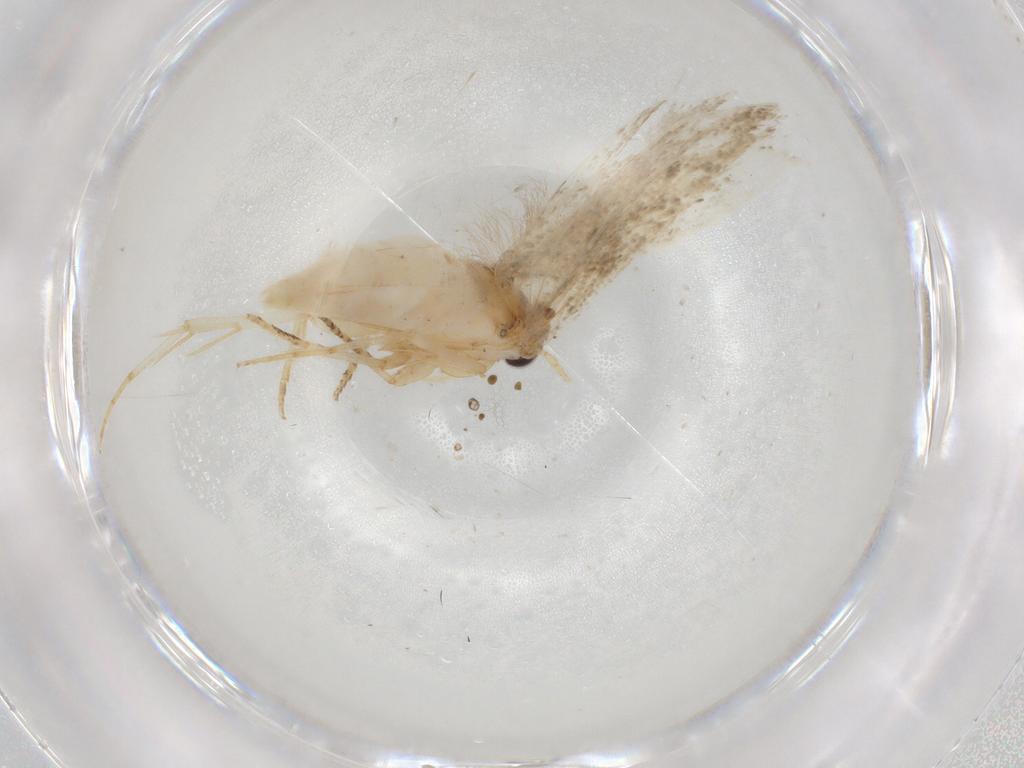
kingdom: Animalia
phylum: Arthropoda
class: Insecta
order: Lepidoptera
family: Gelechiidae
